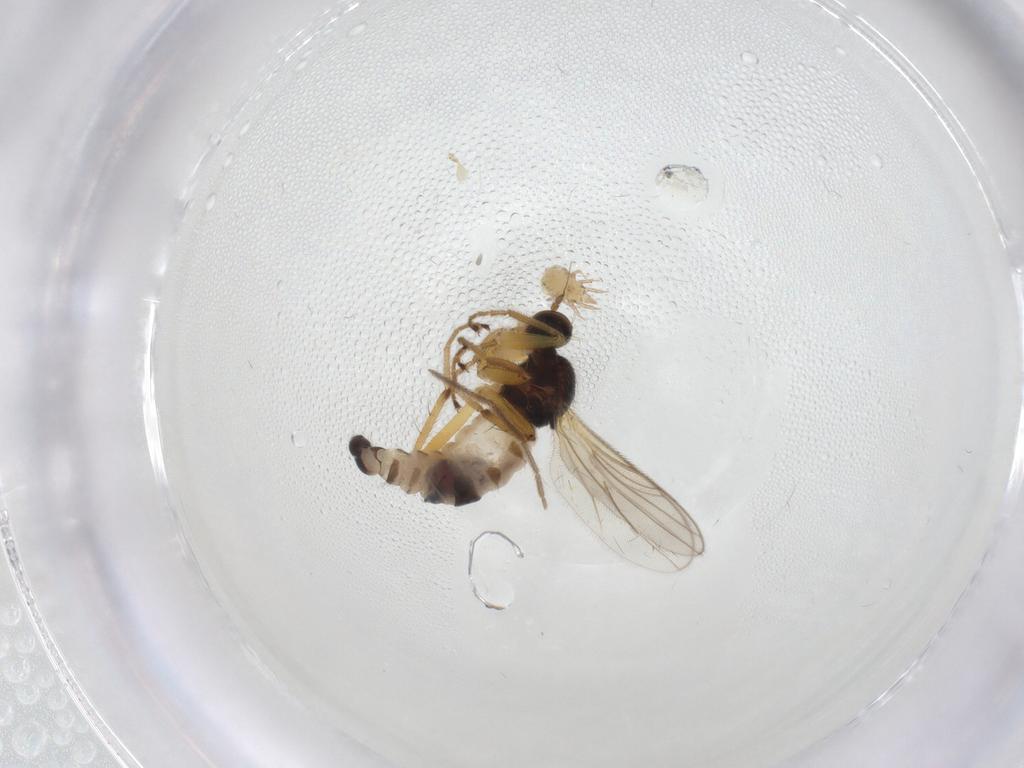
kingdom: Animalia
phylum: Arthropoda
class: Insecta
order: Diptera
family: Hybotidae
